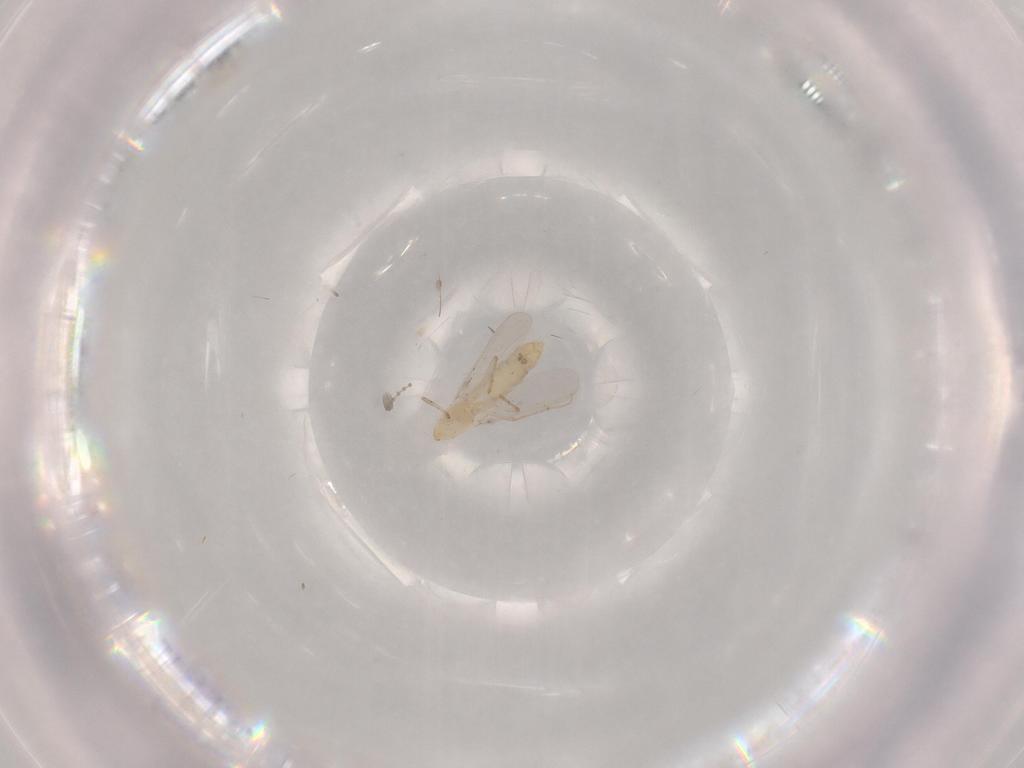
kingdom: Animalia
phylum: Arthropoda
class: Insecta
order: Diptera
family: Chironomidae
